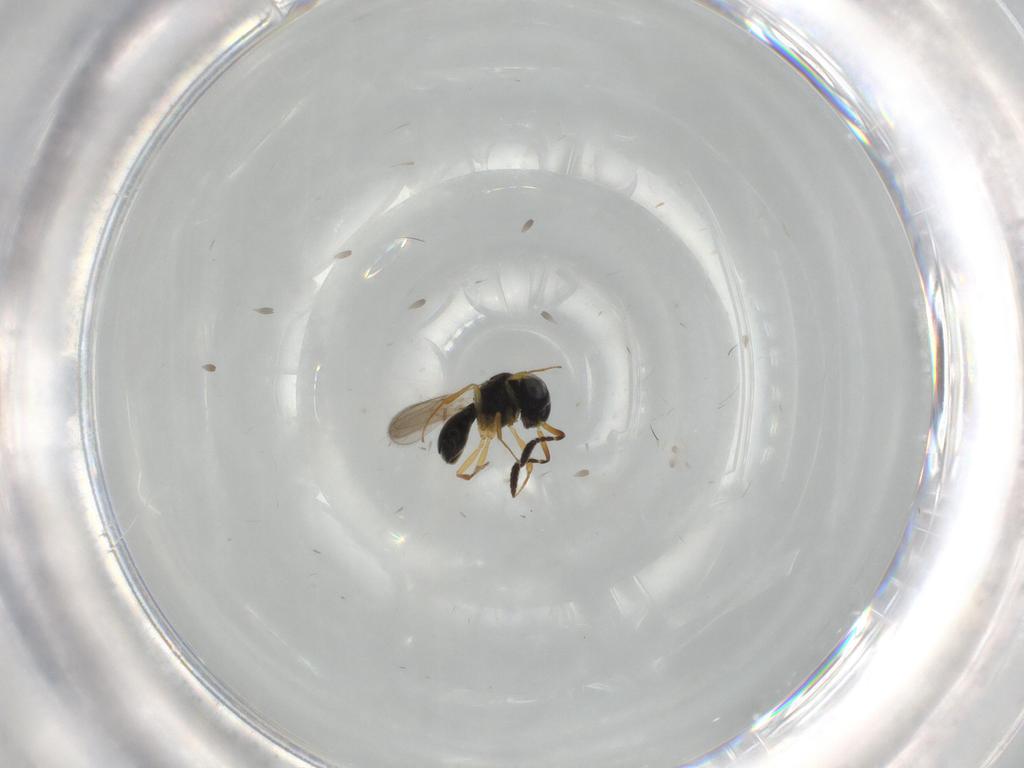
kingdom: Animalia
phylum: Arthropoda
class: Insecta
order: Hymenoptera
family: Scelionidae
